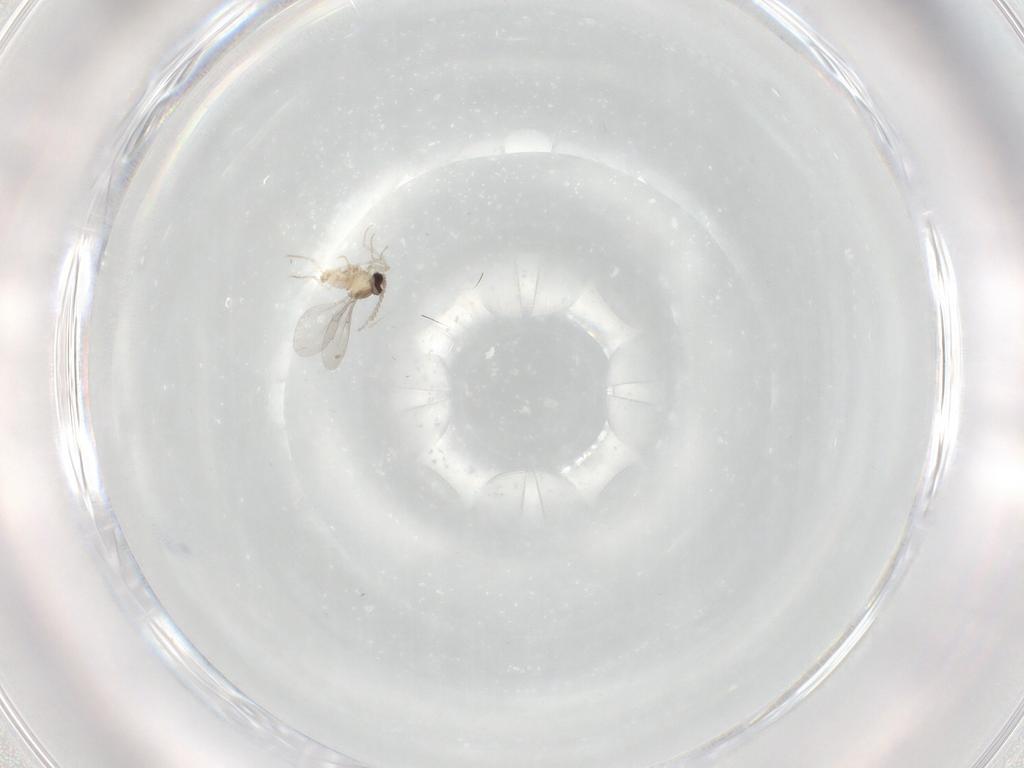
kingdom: Animalia
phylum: Arthropoda
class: Insecta
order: Diptera
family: Cecidomyiidae
